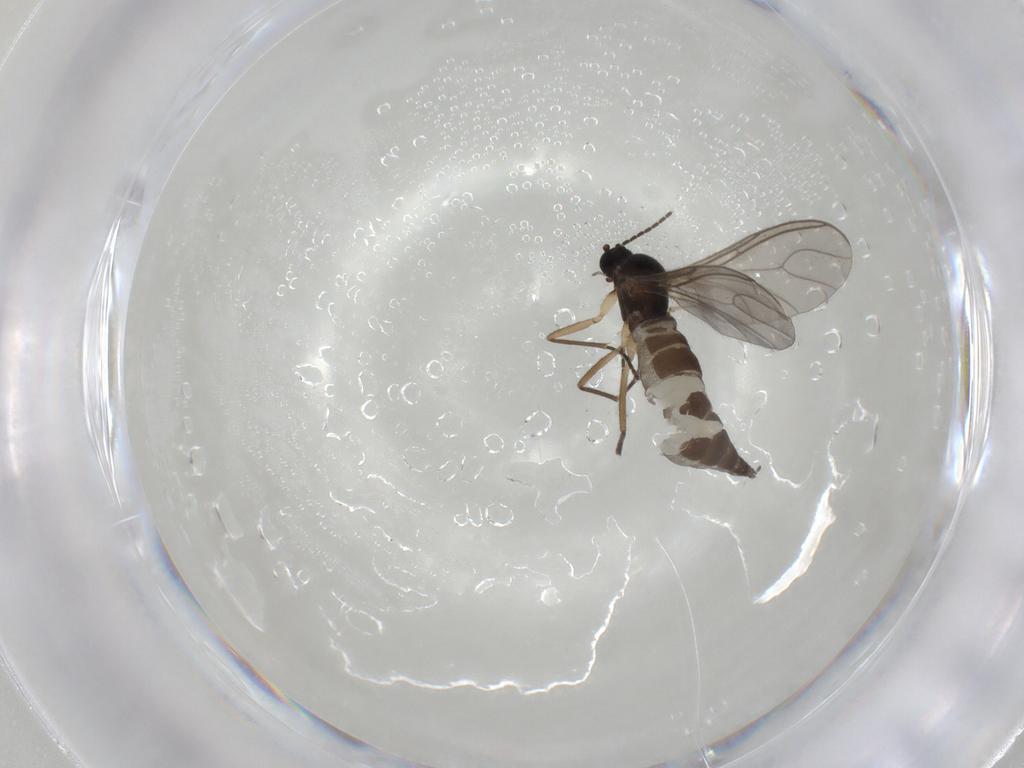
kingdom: Animalia
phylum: Arthropoda
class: Insecta
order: Diptera
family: Sciaridae
